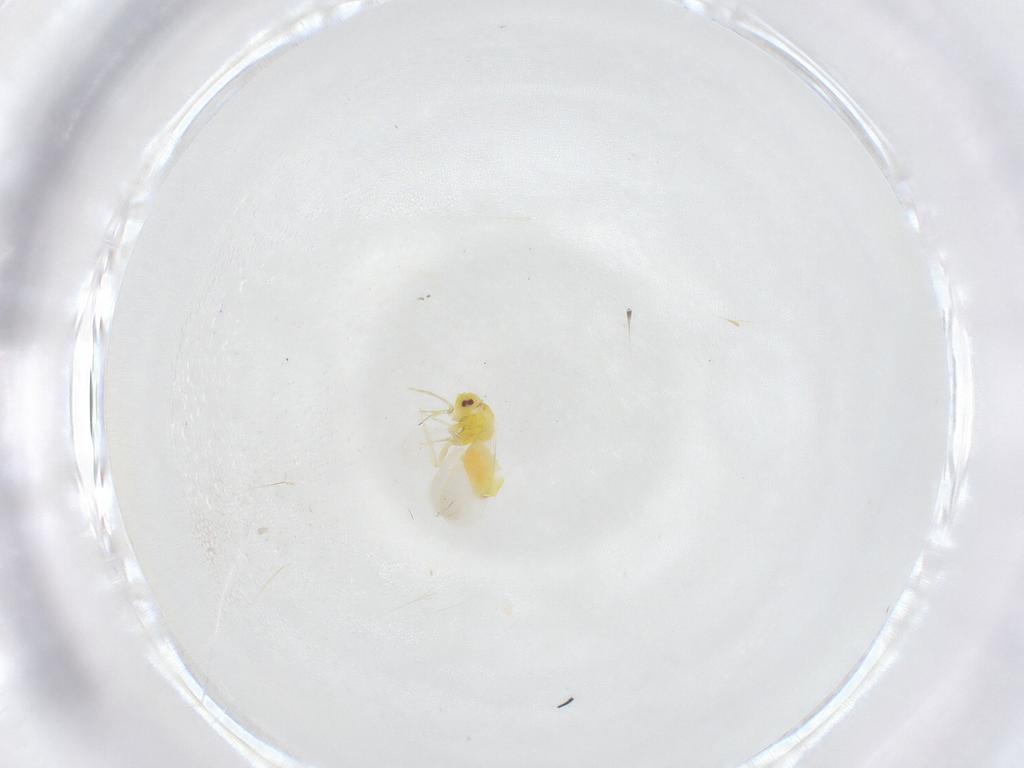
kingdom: Animalia
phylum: Arthropoda
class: Insecta
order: Hemiptera
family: Aleyrodidae
